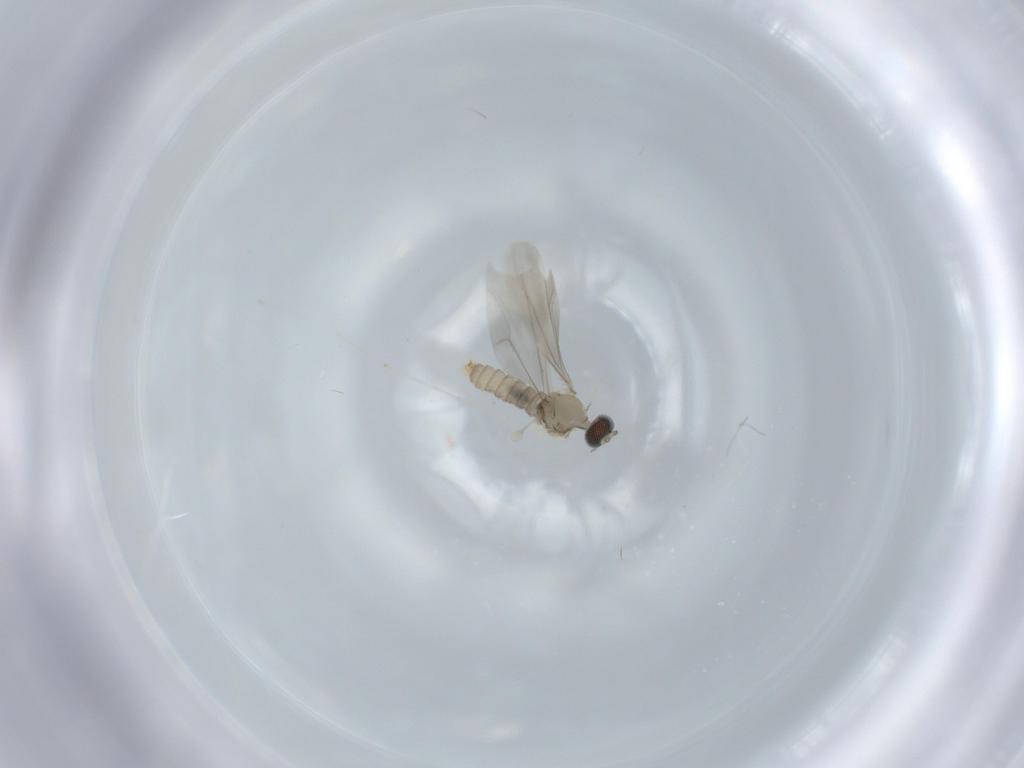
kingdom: Animalia
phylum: Arthropoda
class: Insecta
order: Diptera
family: Cecidomyiidae
